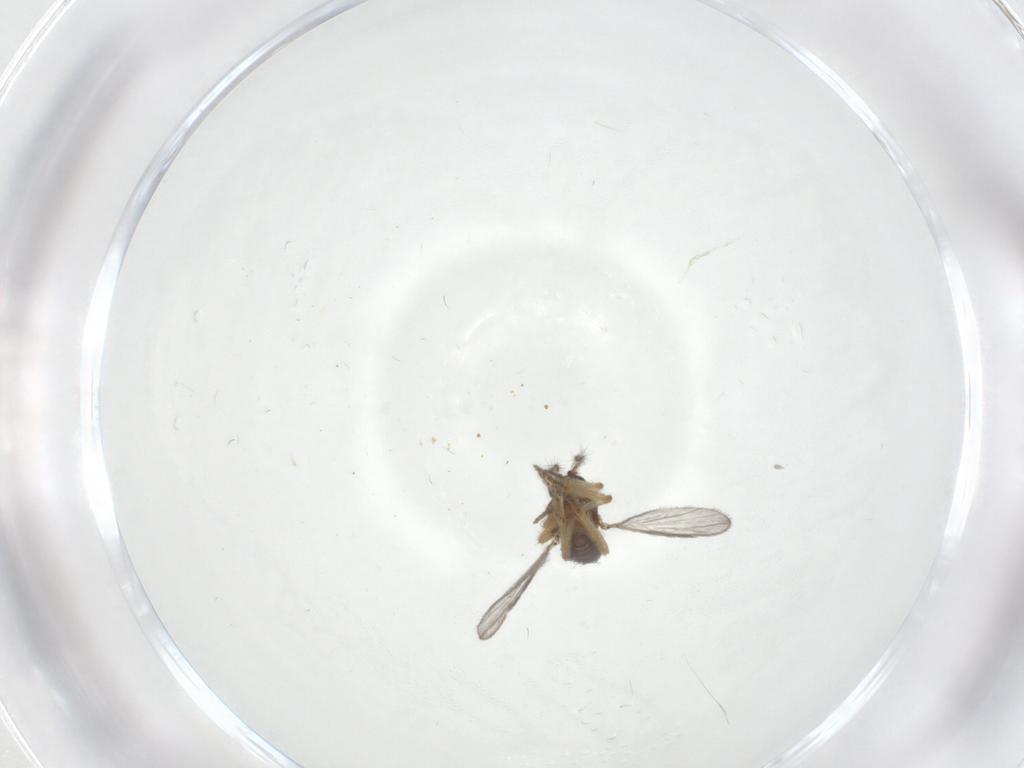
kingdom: Animalia
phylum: Arthropoda
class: Insecta
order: Diptera
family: Ceratopogonidae
